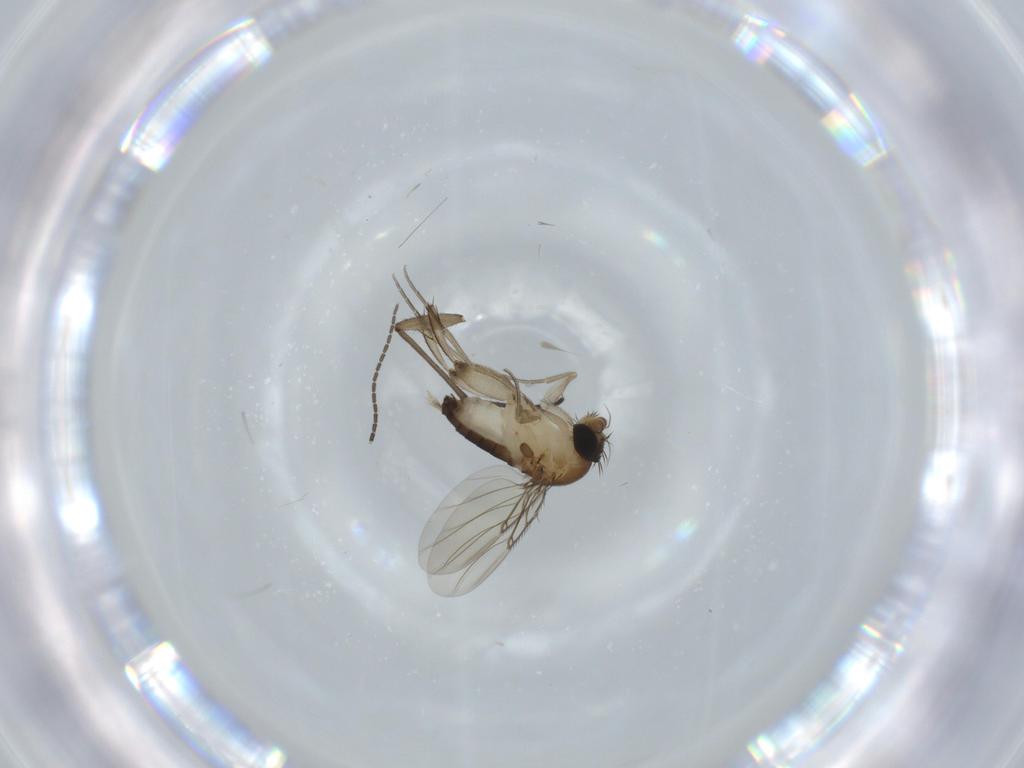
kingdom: Animalia
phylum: Arthropoda
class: Insecta
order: Diptera
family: Phoridae
